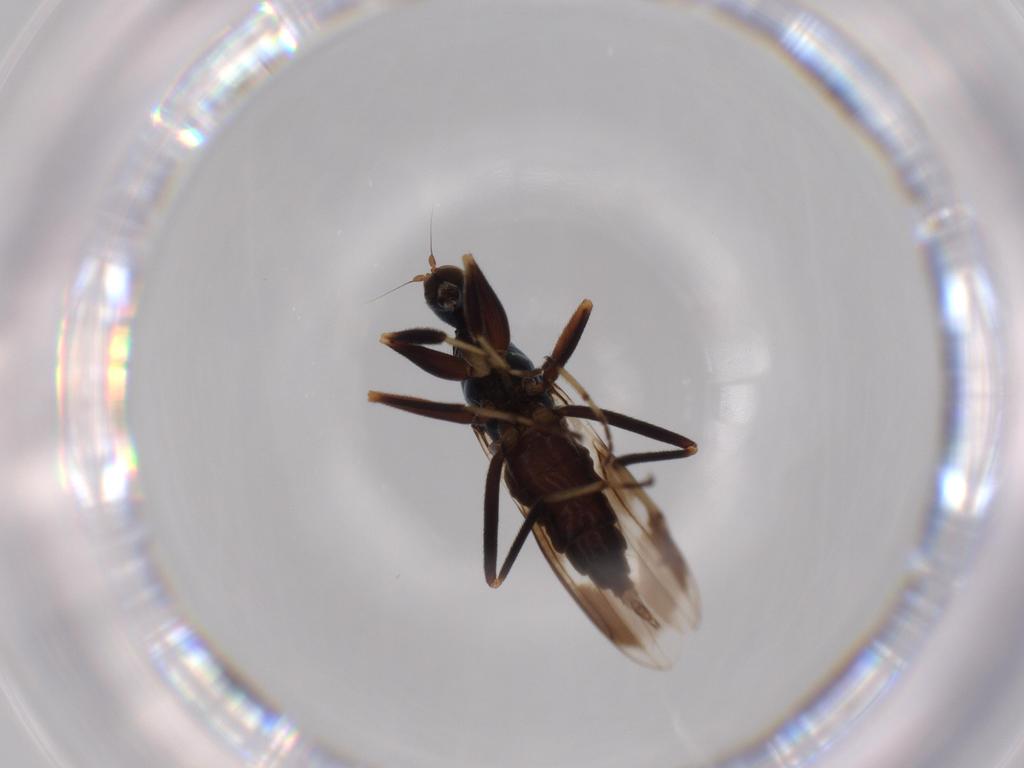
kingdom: Animalia
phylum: Arthropoda
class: Insecta
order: Diptera
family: Hybotidae
